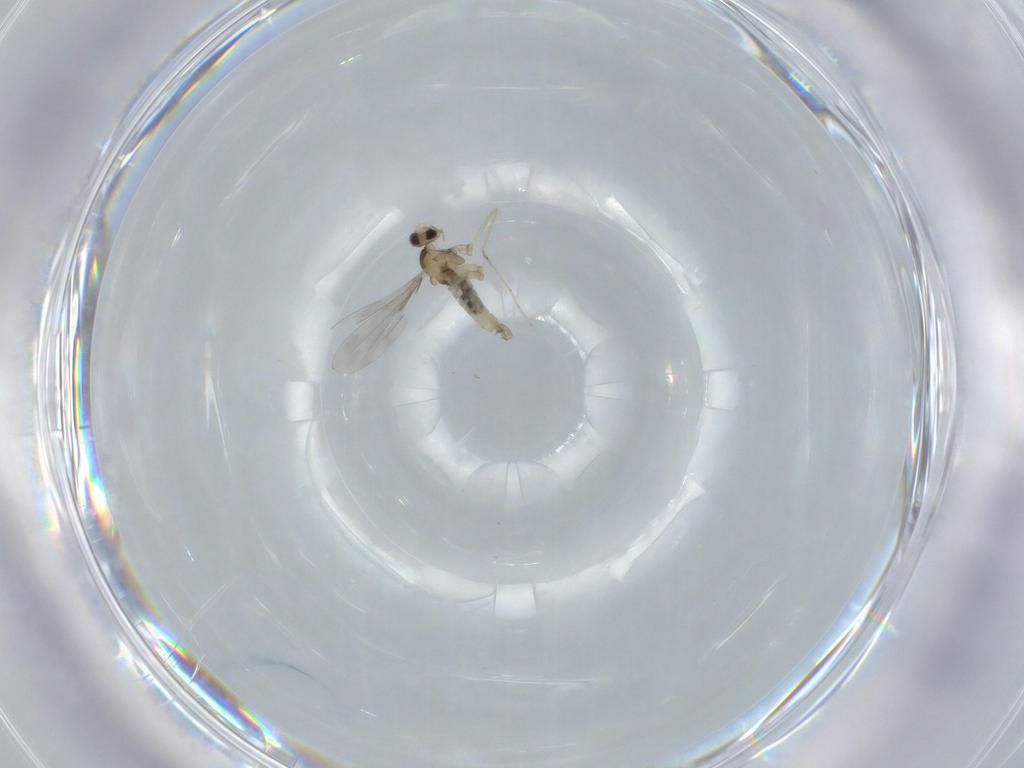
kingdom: Animalia
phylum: Arthropoda
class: Insecta
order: Diptera
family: Cecidomyiidae
